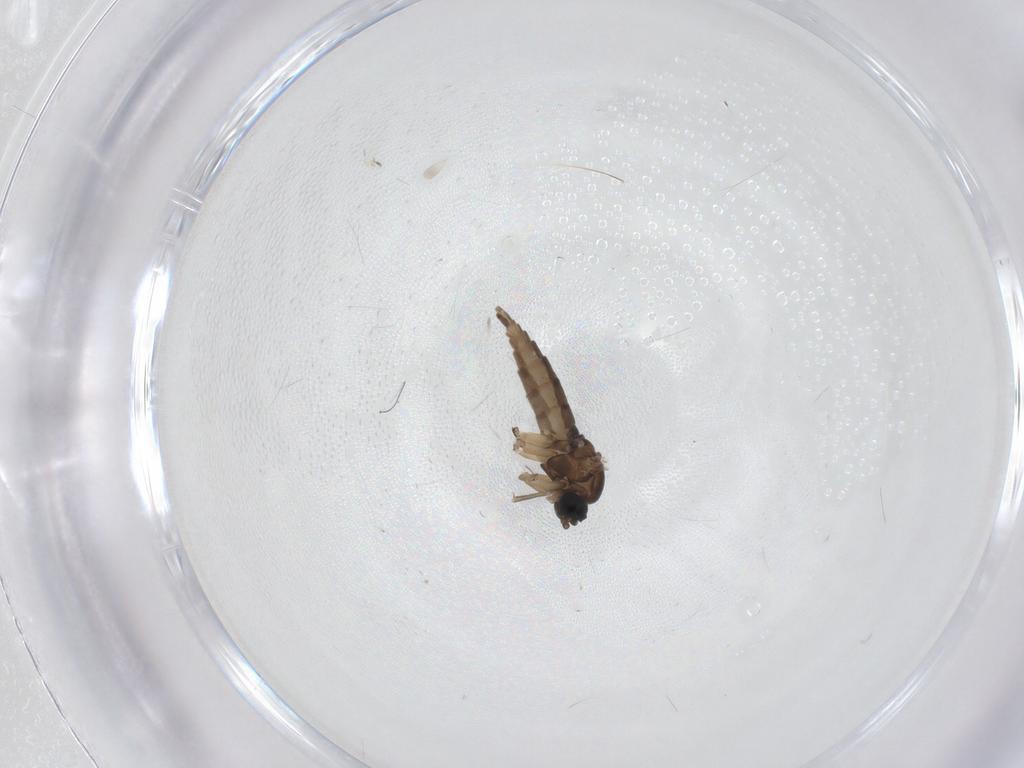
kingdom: Animalia
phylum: Arthropoda
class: Insecta
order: Diptera
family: Sciaridae
